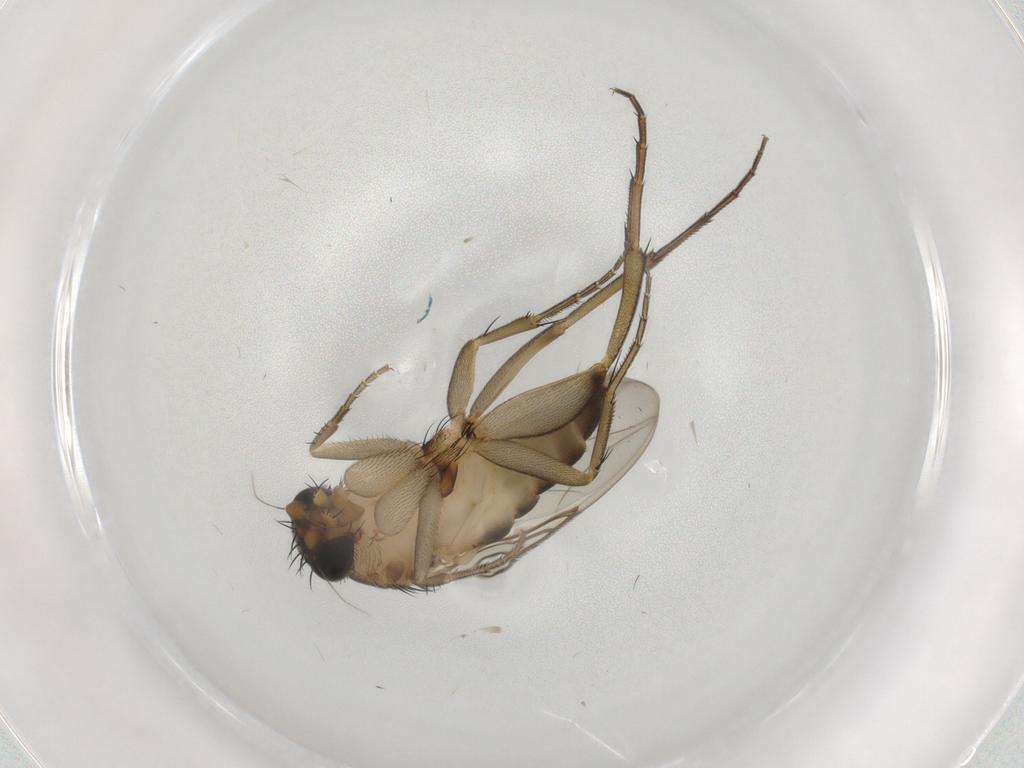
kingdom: Animalia
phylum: Arthropoda
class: Insecta
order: Diptera
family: Phoridae
